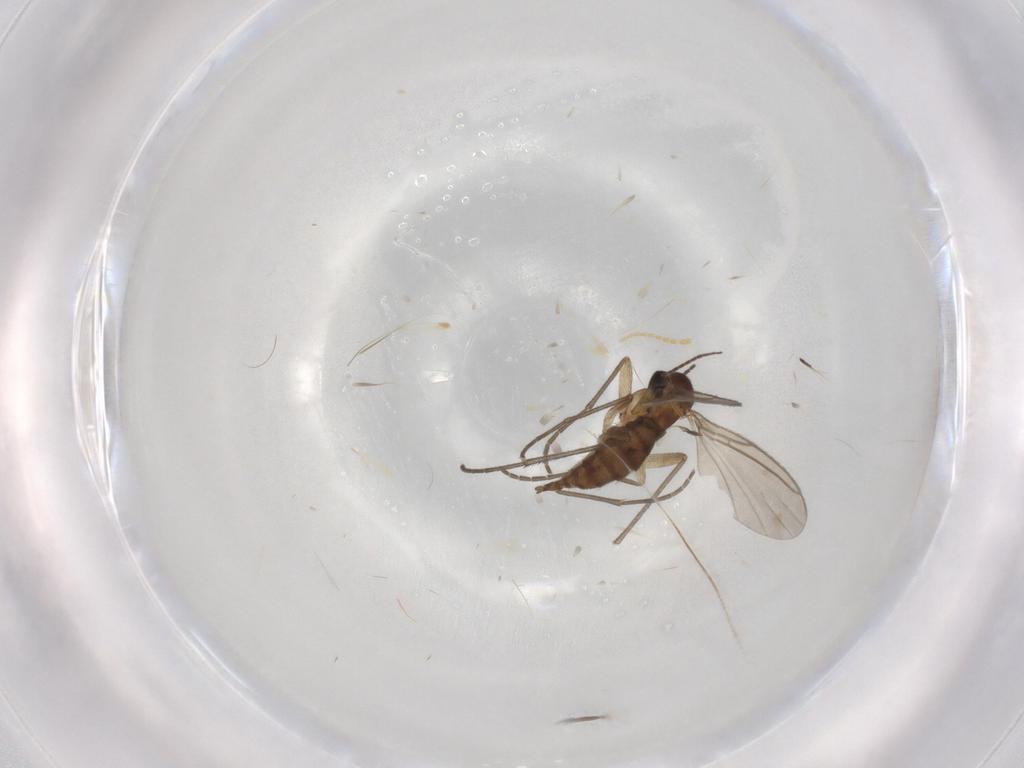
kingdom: Animalia
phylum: Arthropoda
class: Insecta
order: Diptera
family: Sciaridae
